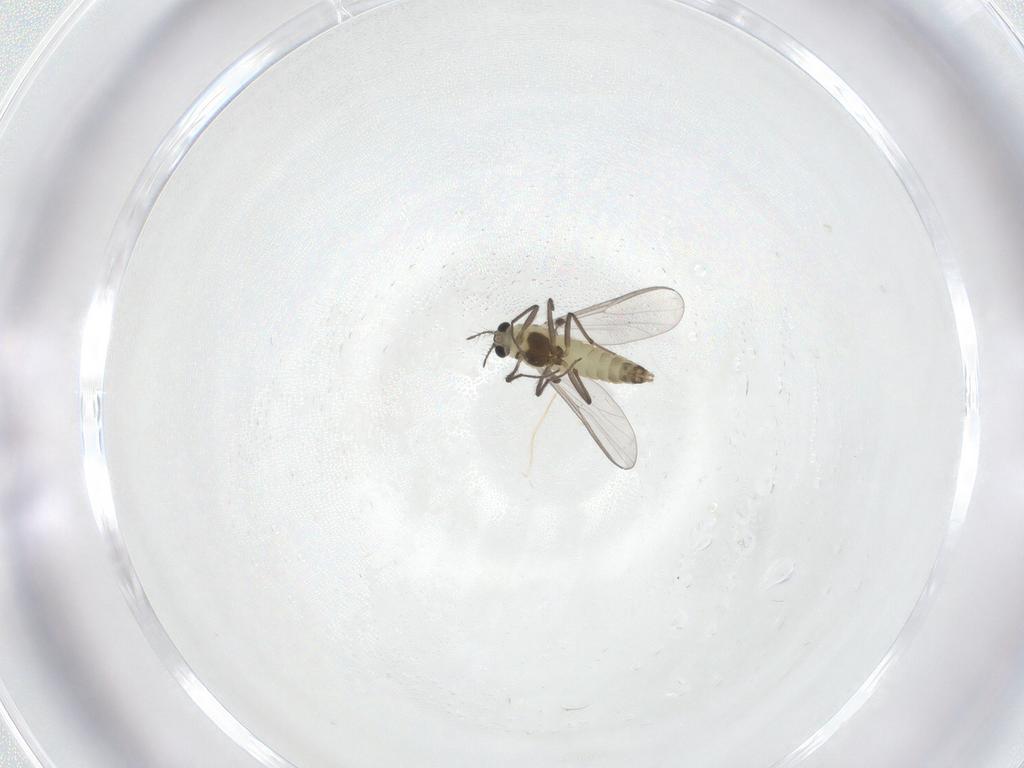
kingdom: Animalia
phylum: Arthropoda
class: Insecta
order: Diptera
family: Chironomidae
